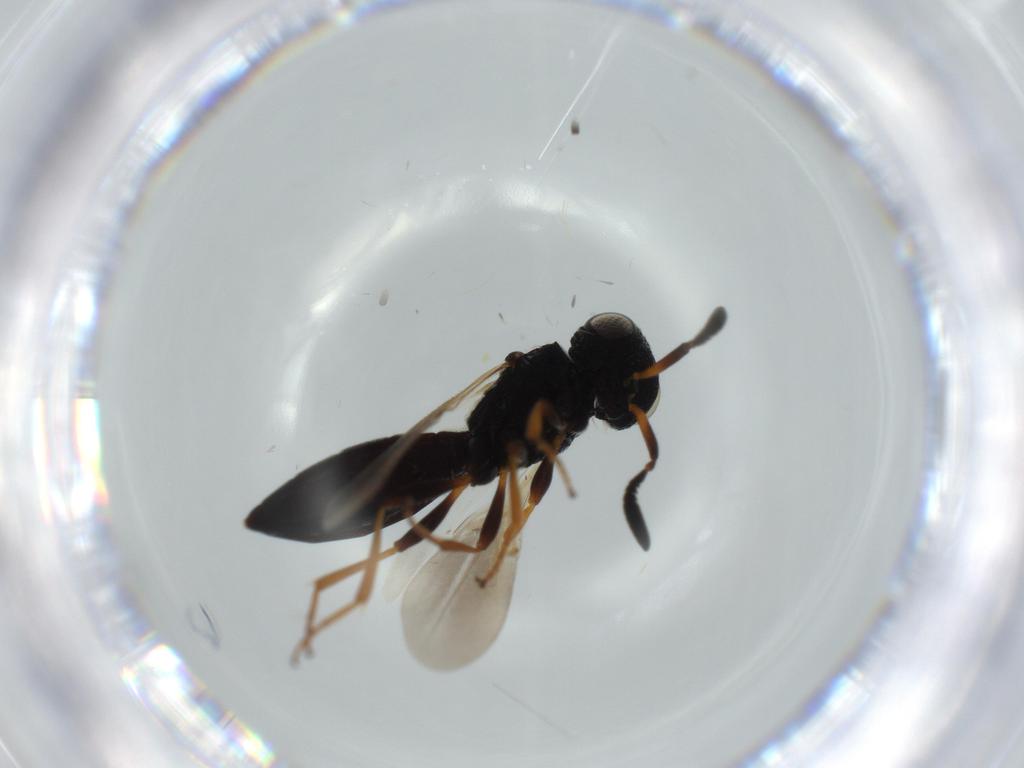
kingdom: Animalia
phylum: Arthropoda
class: Insecta
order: Hymenoptera
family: Scelionidae
